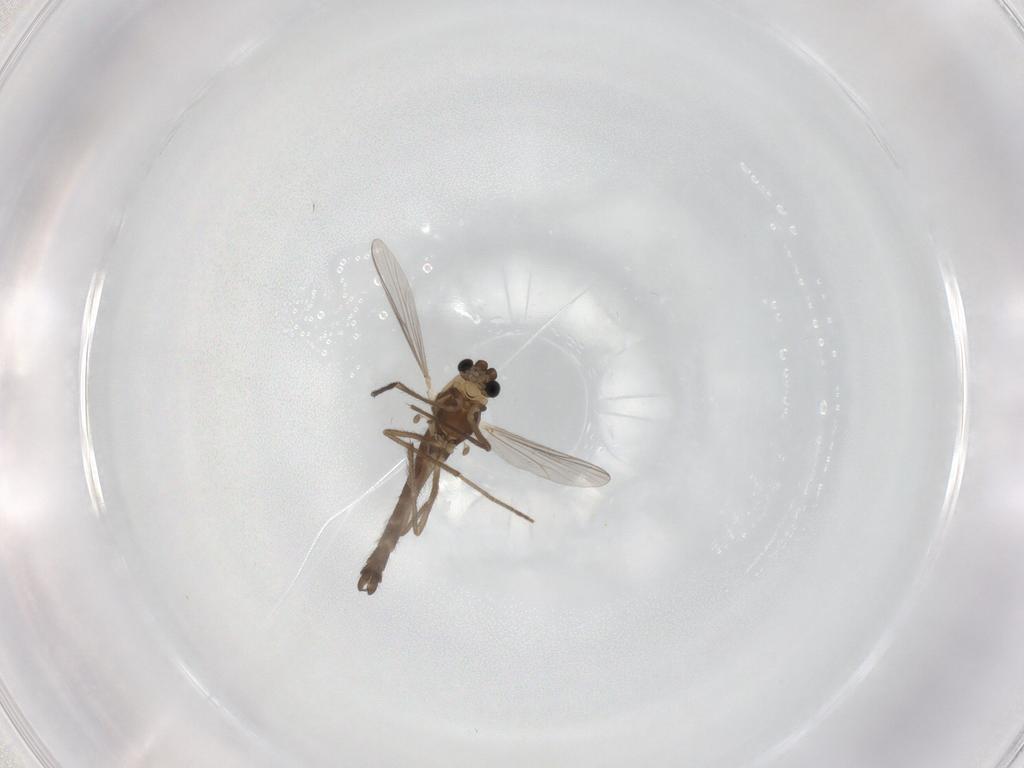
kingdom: Animalia
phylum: Arthropoda
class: Insecta
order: Diptera
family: Chironomidae
